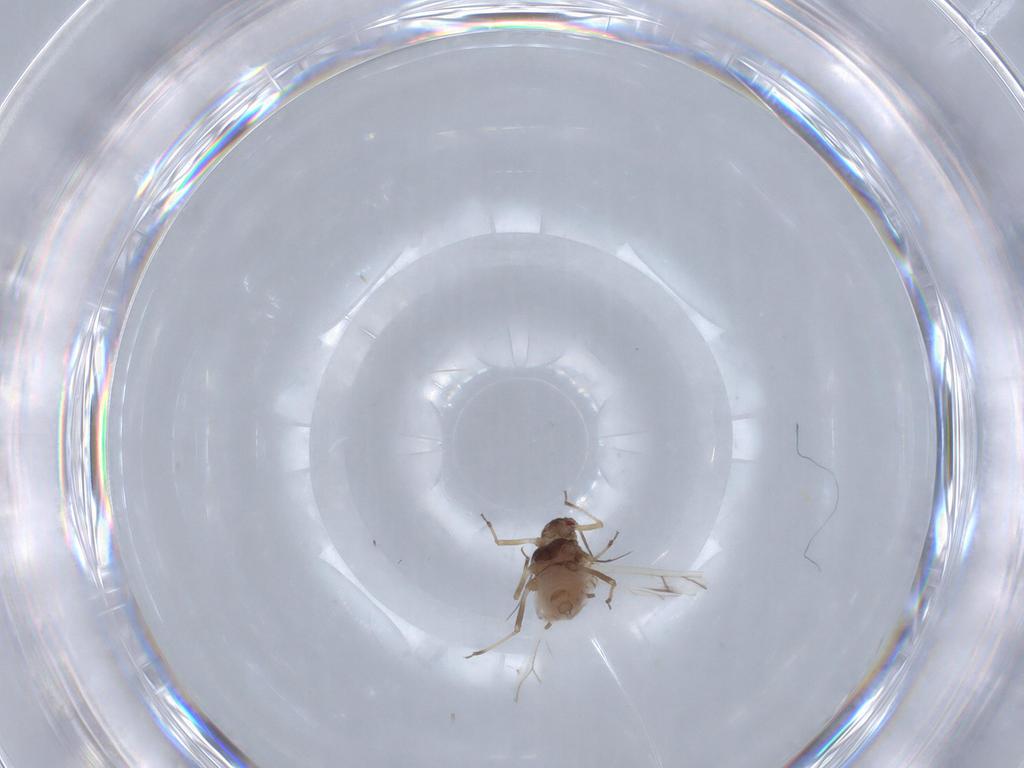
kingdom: Animalia
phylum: Arthropoda
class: Insecta
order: Hemiptera
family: Aphididae
